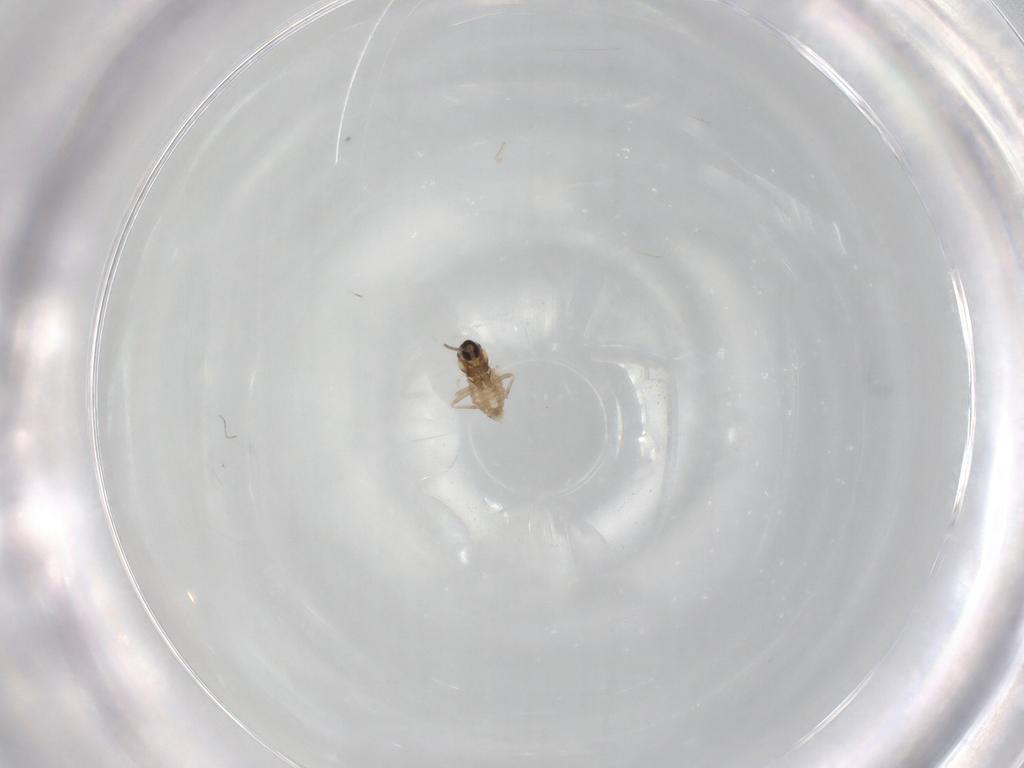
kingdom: Animalia
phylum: Arthropoda
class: Insecta
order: Diptera
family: Cecidomyiidae
